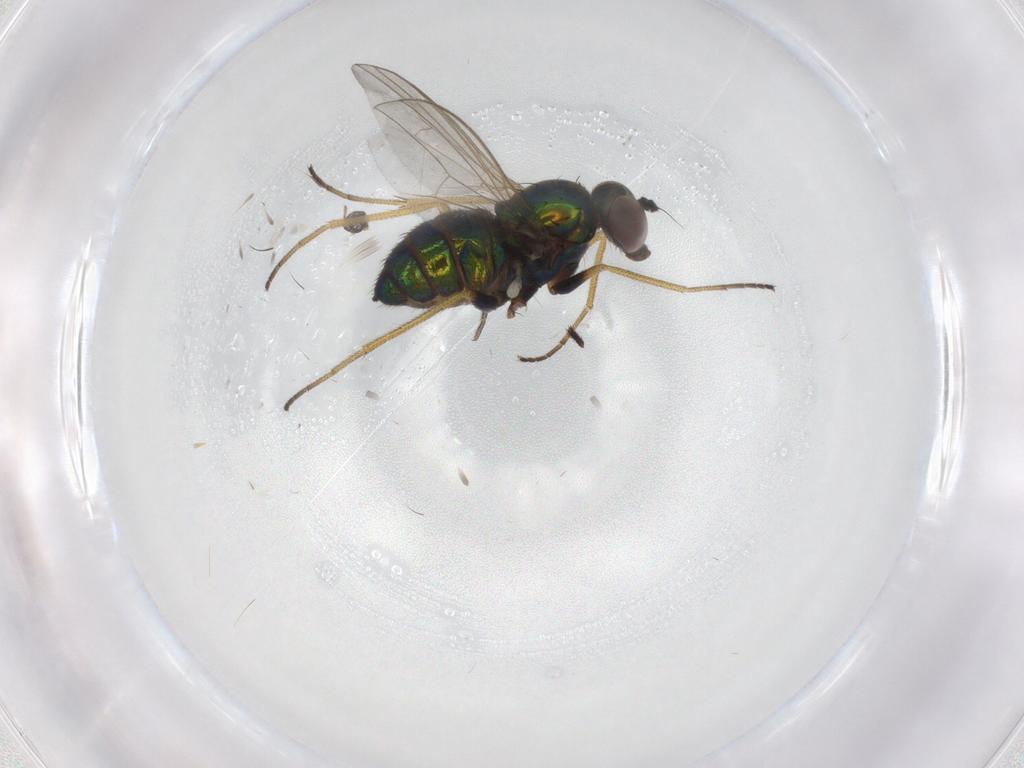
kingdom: Animalia
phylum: Arthropoda
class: Insecta
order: Diptera
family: Dolichopodidae
